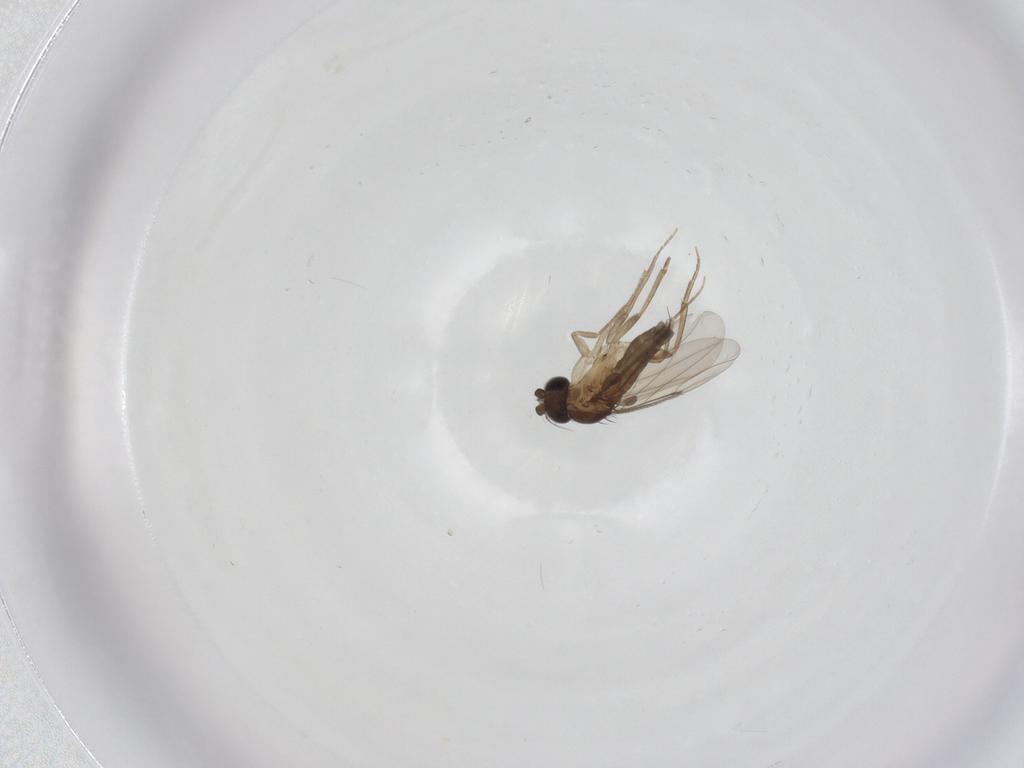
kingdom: Animalia
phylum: Arthropoda
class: Insecta
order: Diptera
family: Phoridae
